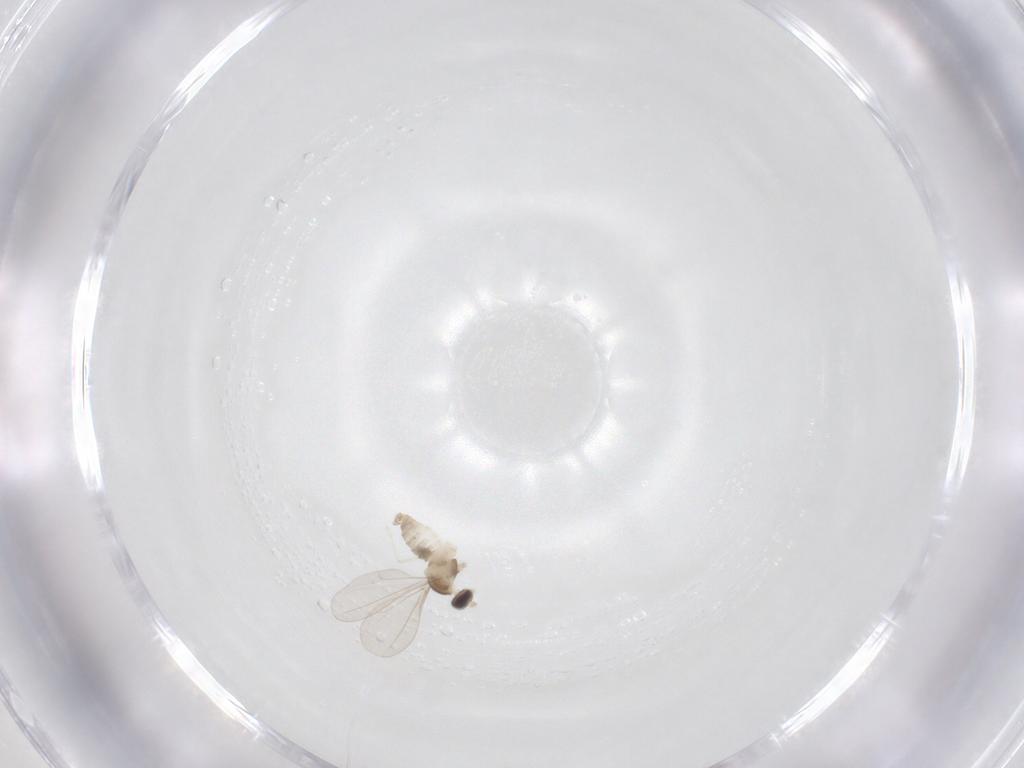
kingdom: Animalia
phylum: Arthropoda
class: Insecta
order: Diptera
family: Cecidomyiidae
